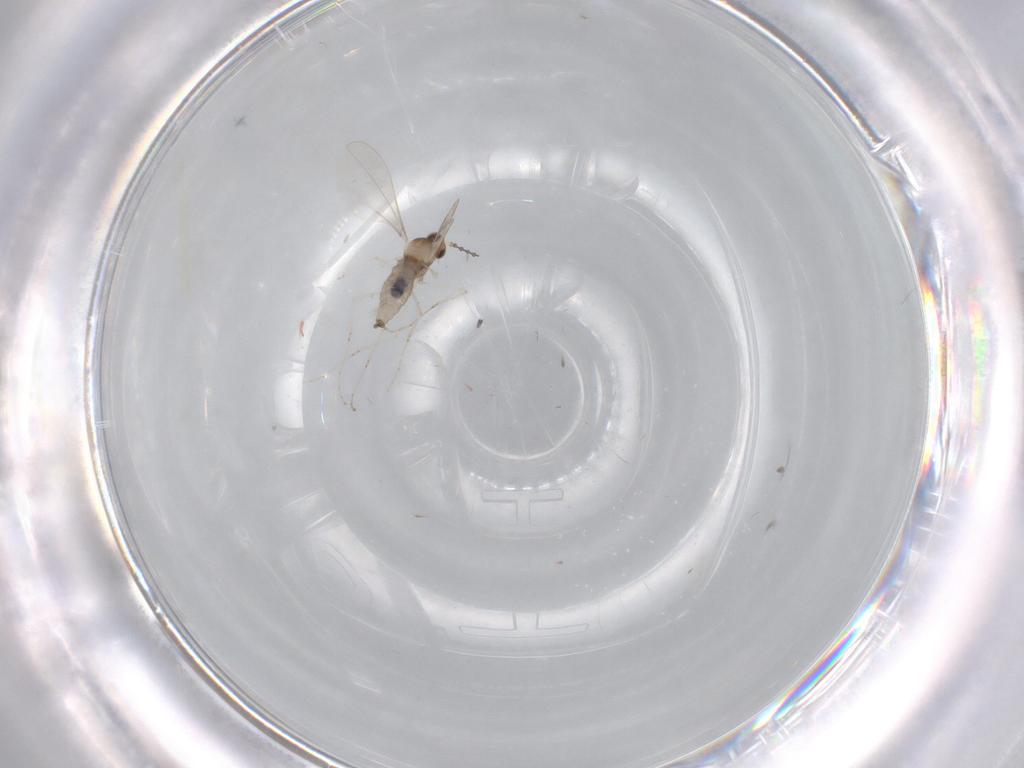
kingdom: Animalia
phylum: Arthropoda
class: Insecta
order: Diptera
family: Cecidomyiidae
